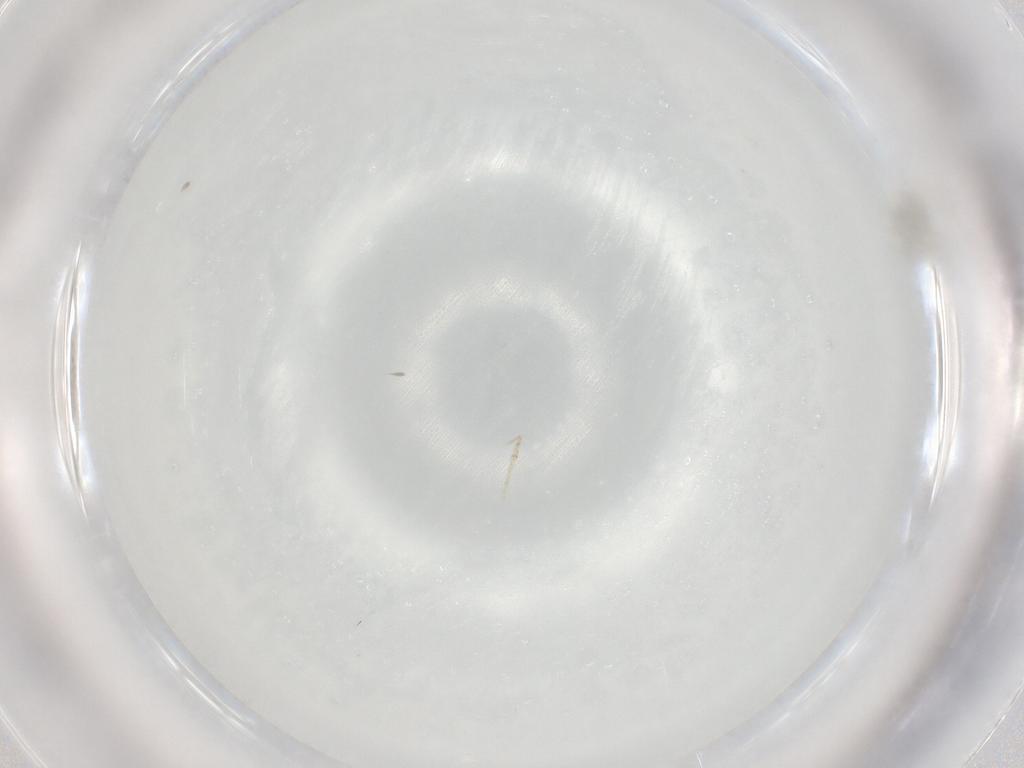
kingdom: Animalia
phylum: Arthropoda
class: Insecta
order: Diptera
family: Cecidomyiidae
